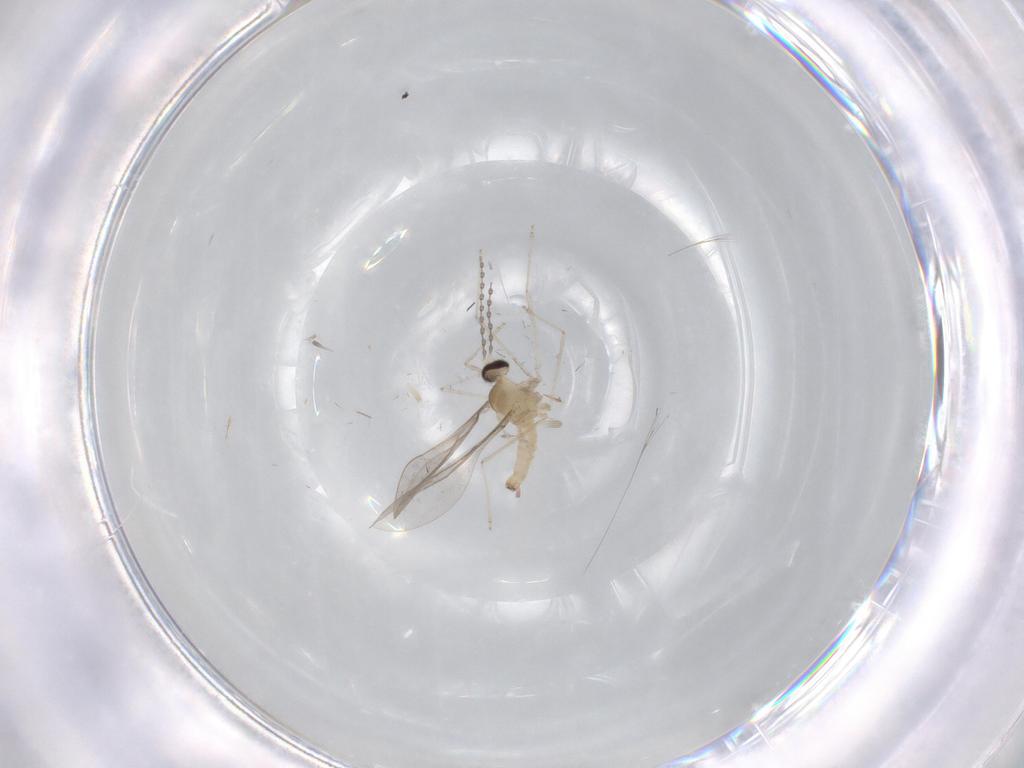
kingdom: Animalia
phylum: Arthropoda
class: Insecta
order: Diptera
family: Cecidomyiidae
